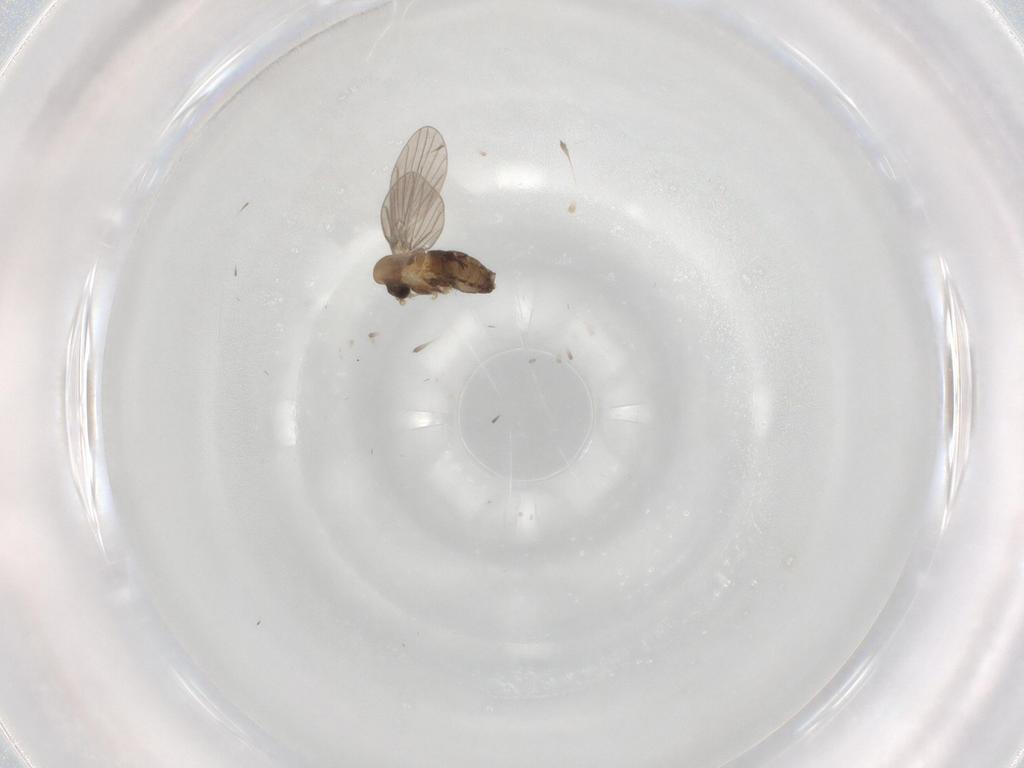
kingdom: Animalia
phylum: Arthropoda
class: Insecta
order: Diptera
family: Psychodidae
